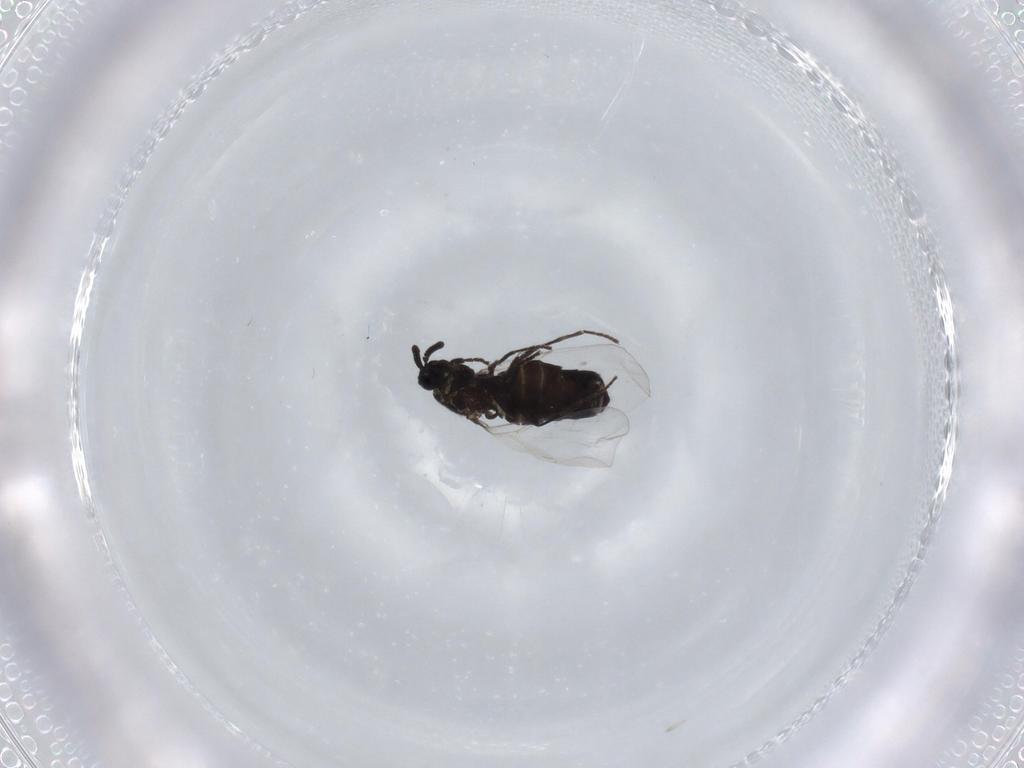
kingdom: Animalia
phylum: Arthropoda
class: Insecta
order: Diptera
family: Scatopsidae
